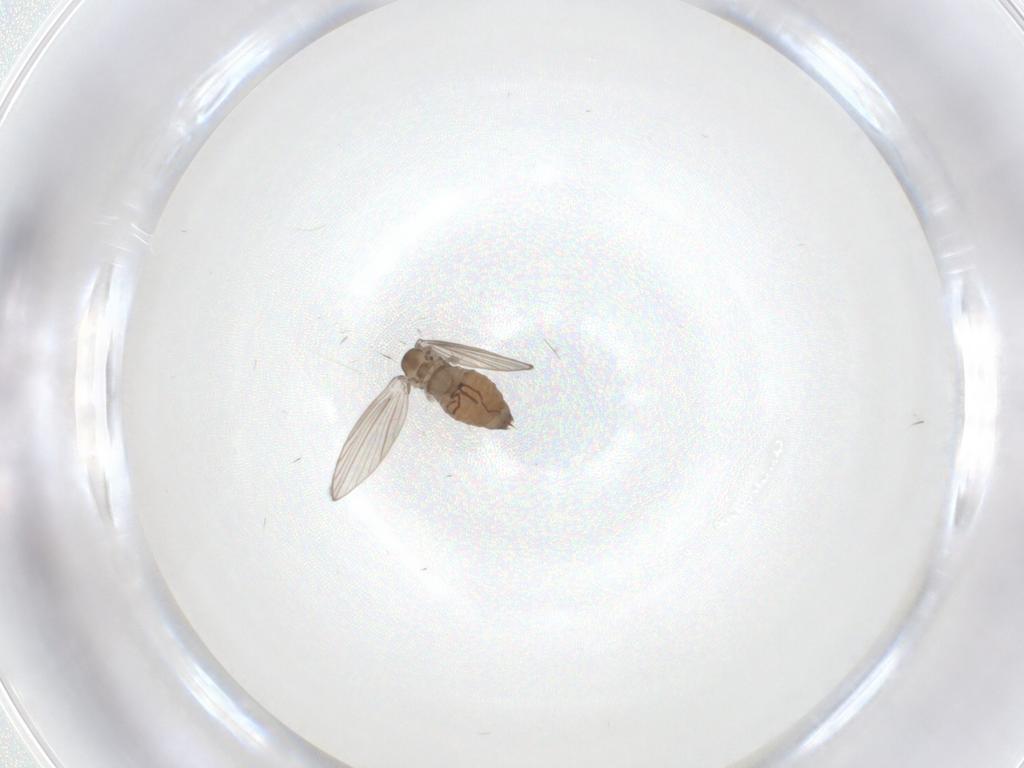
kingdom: Animalia
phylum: Arthropoda
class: Insecta
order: Diptera
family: Psychodidae
